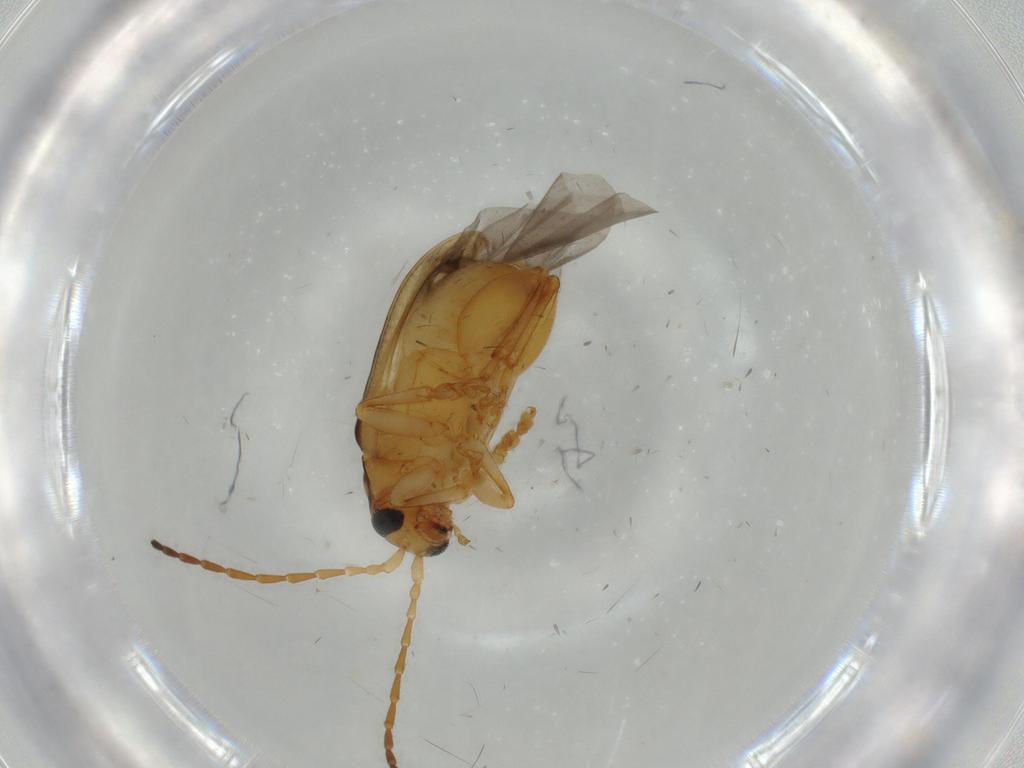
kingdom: Animalia
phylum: Arthropoda
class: Insecta
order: Coleoptera
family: Chrysomelidae
